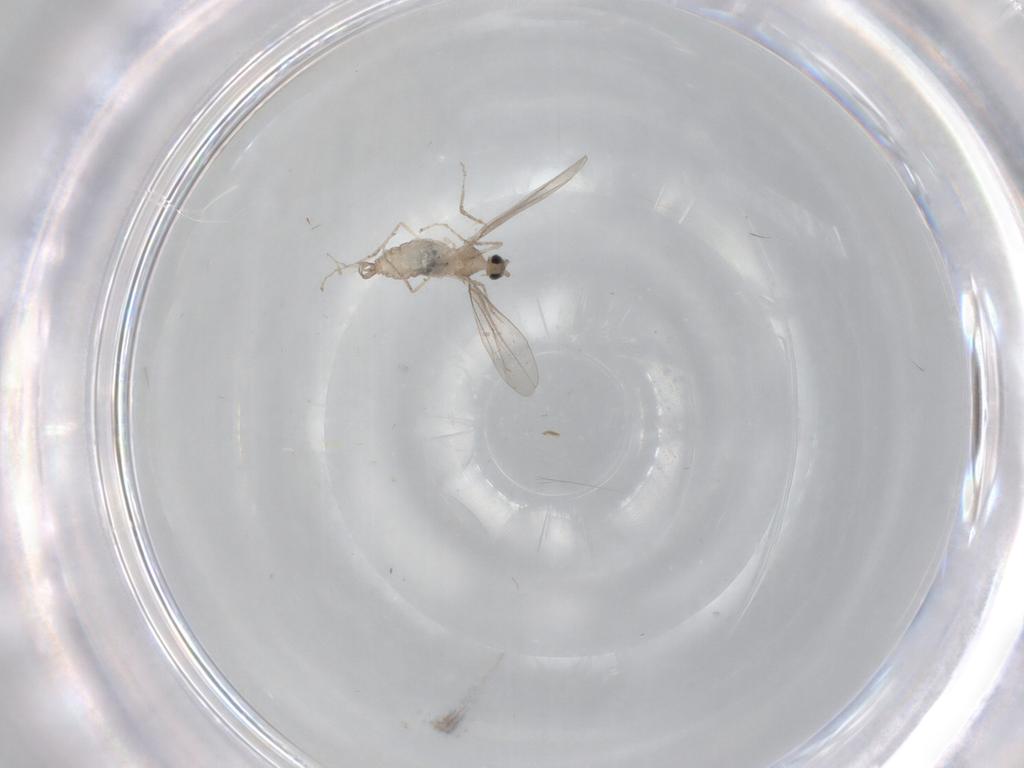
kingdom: Animalia
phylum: Arthropoda
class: Insecta
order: Diptera
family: Cecidomyiidae
